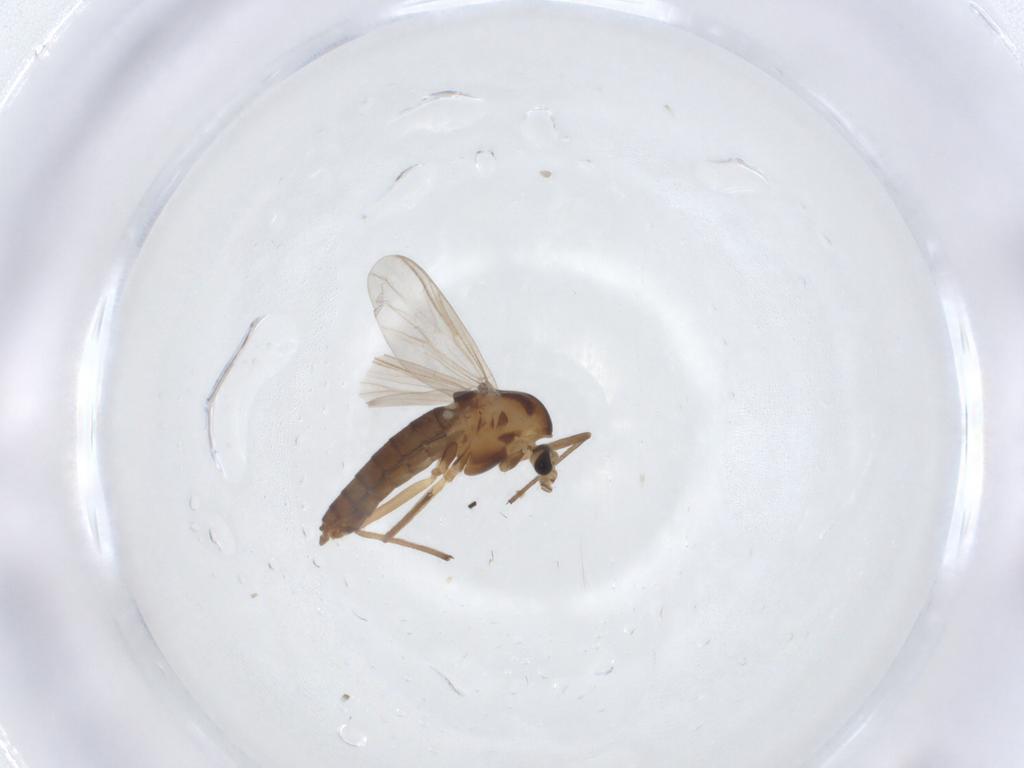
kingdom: Animalia
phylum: Arthropoda
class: Insecta
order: Diptera
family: Chironomidae
